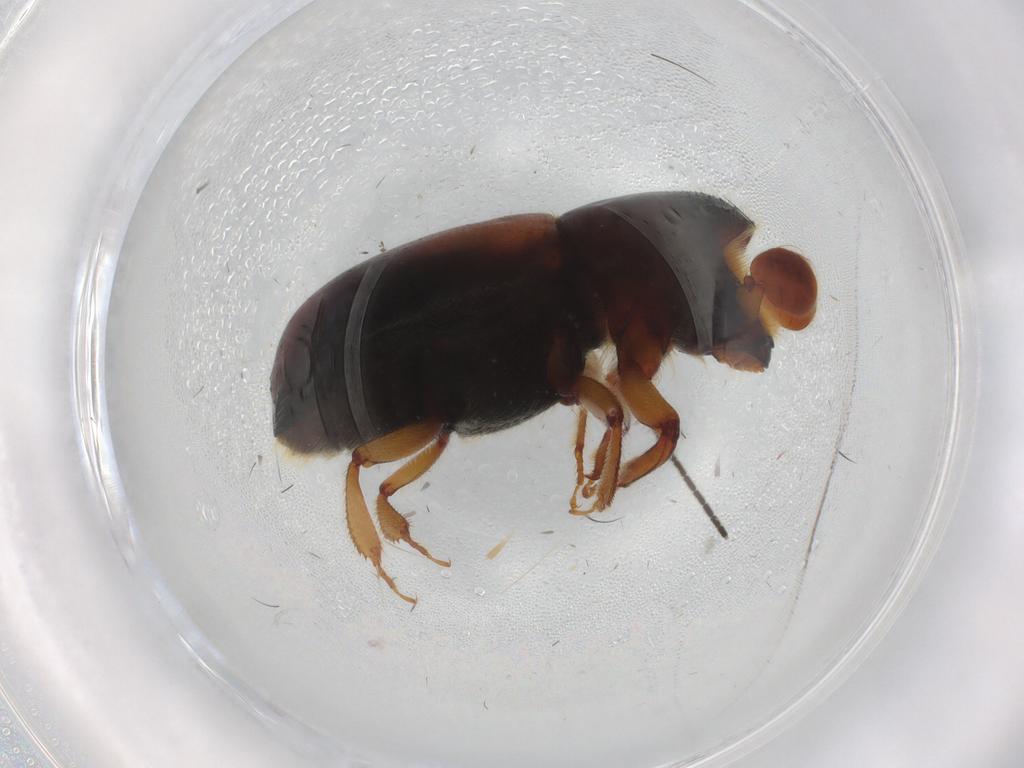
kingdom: Animalia
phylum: Arthropoda
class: Insecta
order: Coleoptera
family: Curculionidae
